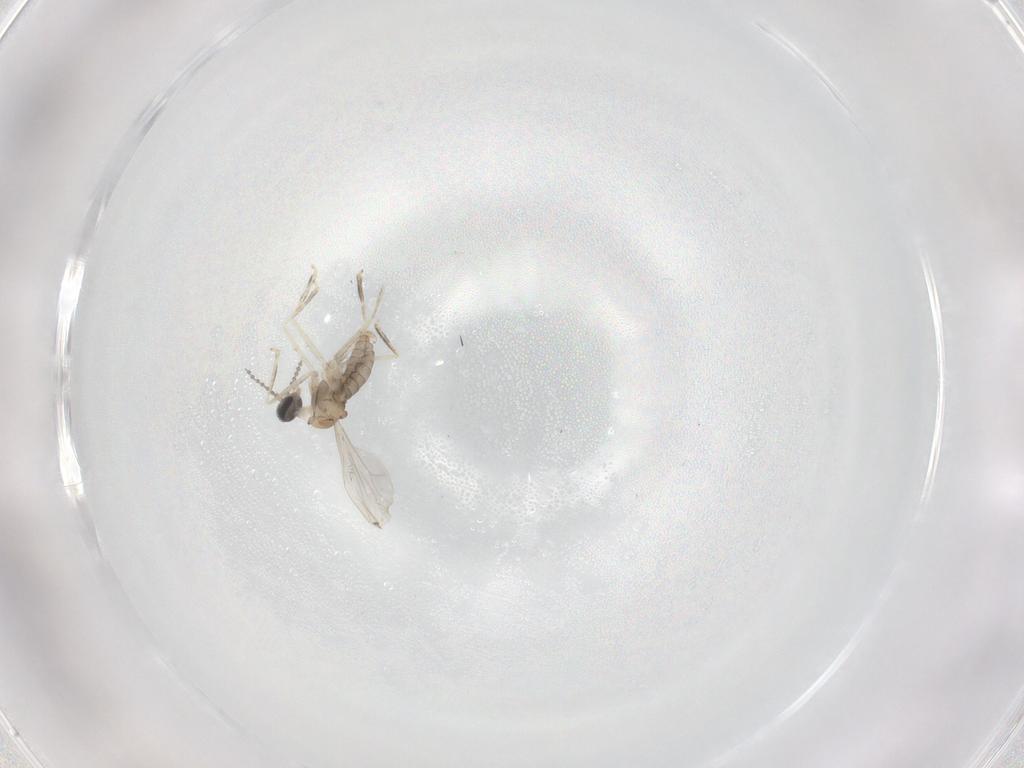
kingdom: Animalia
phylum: Arthropoda
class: Insecta
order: Diptera
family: Cecidomyiidae
